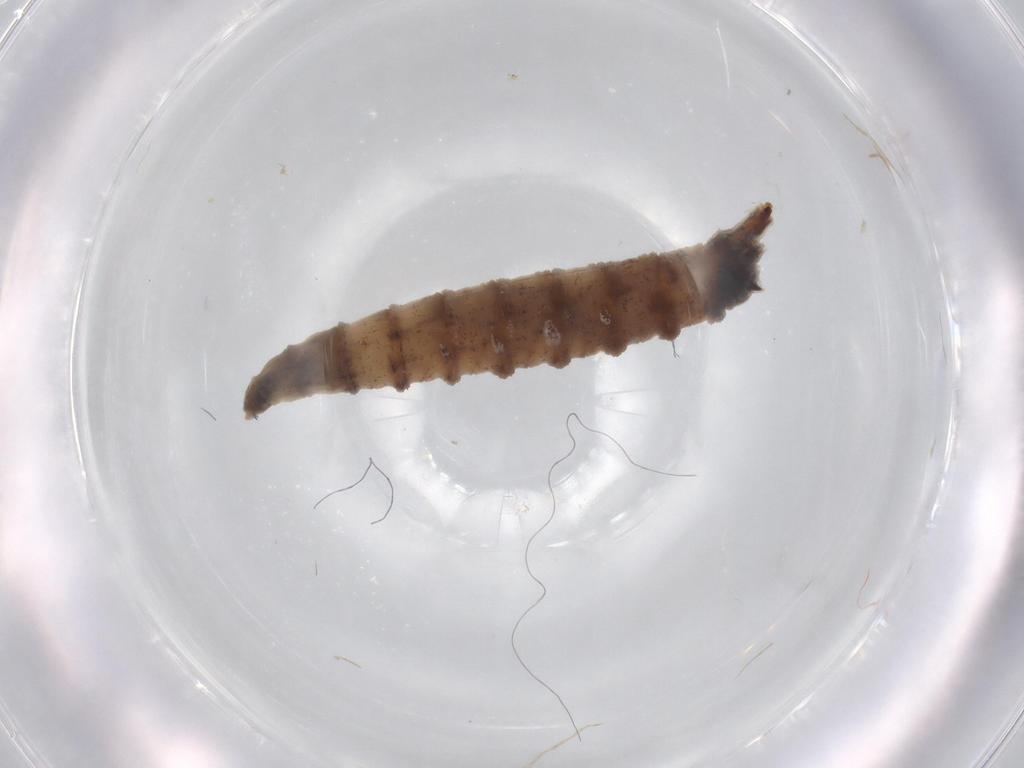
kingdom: Animalia
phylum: Arthropoda
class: Insecta
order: Diptera
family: Drosophilidae
